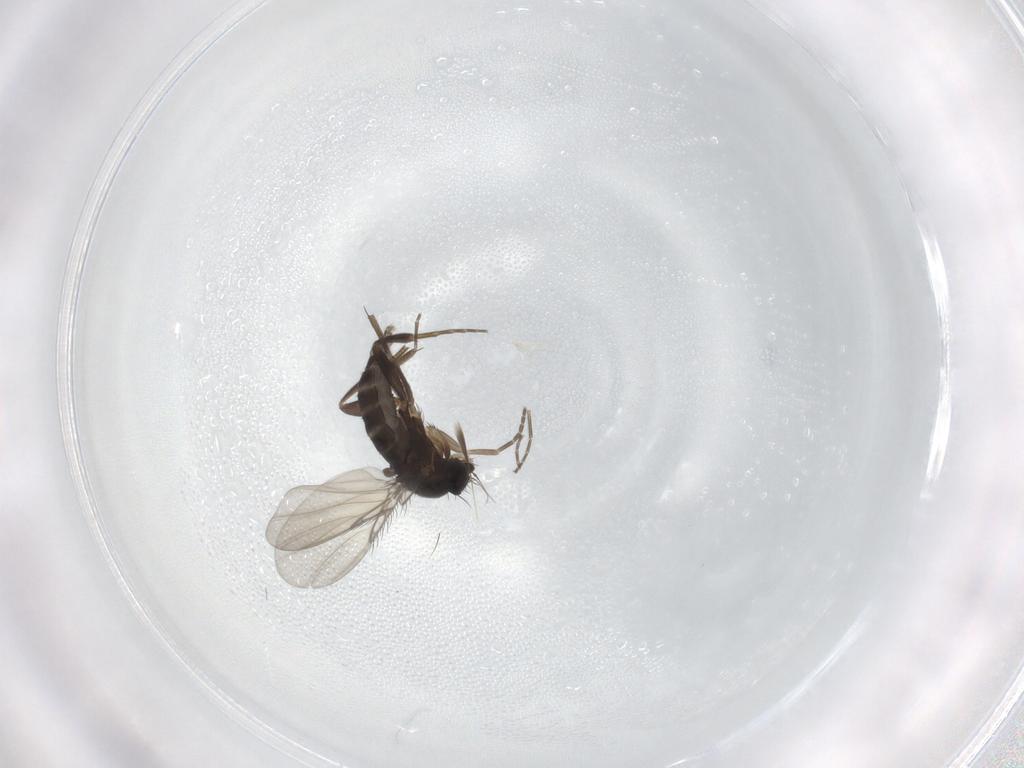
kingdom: Animalia
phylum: Arthropoda
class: Insecta
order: Diptera
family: Phoridae
